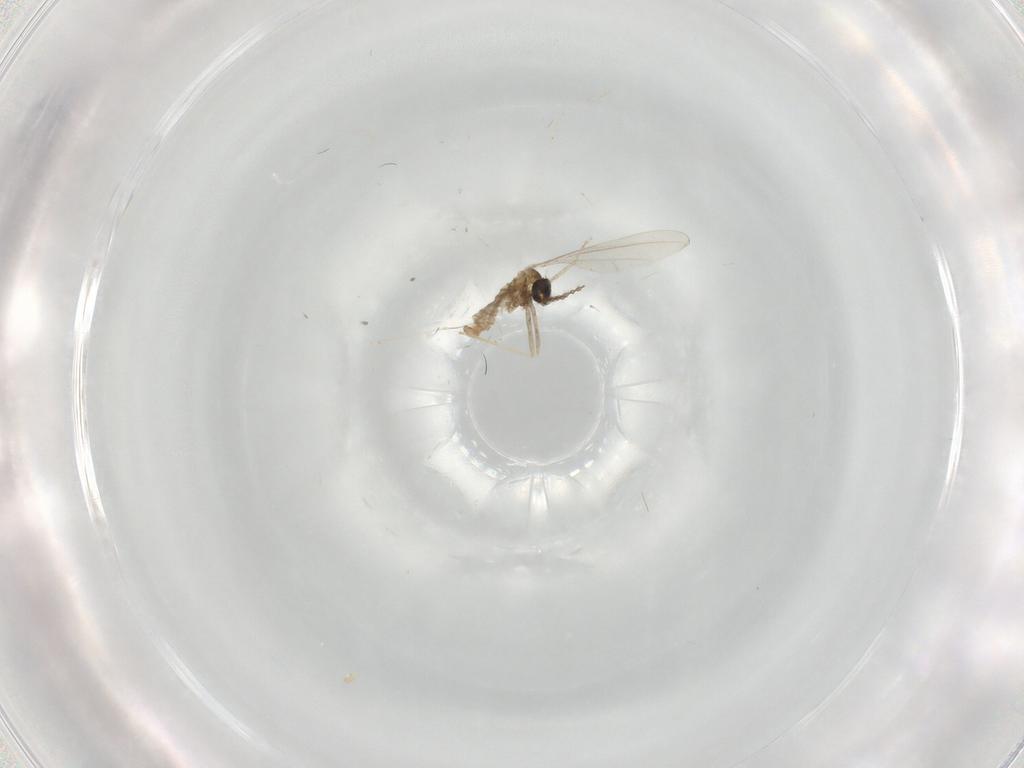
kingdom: Animalia
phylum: Arthropoda
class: Insecta
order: Diptera
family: Cecidomyiidae
